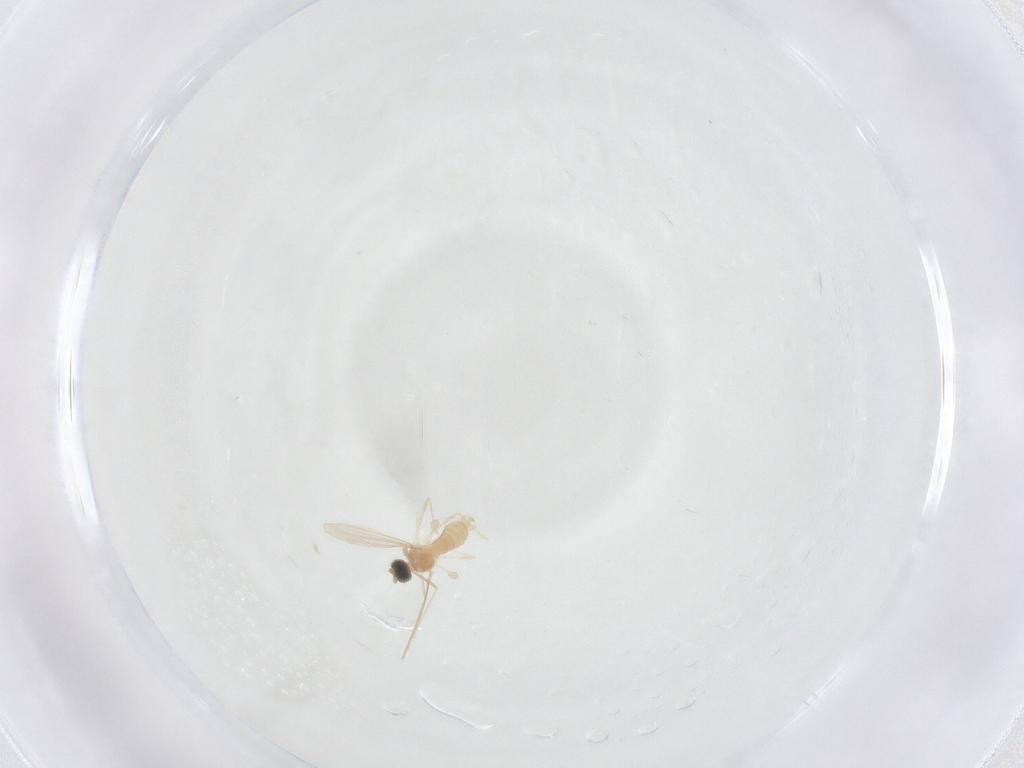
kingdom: Animalia
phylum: Arthropoda
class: Insecta
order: Diptera
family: Cecidomyiidae
